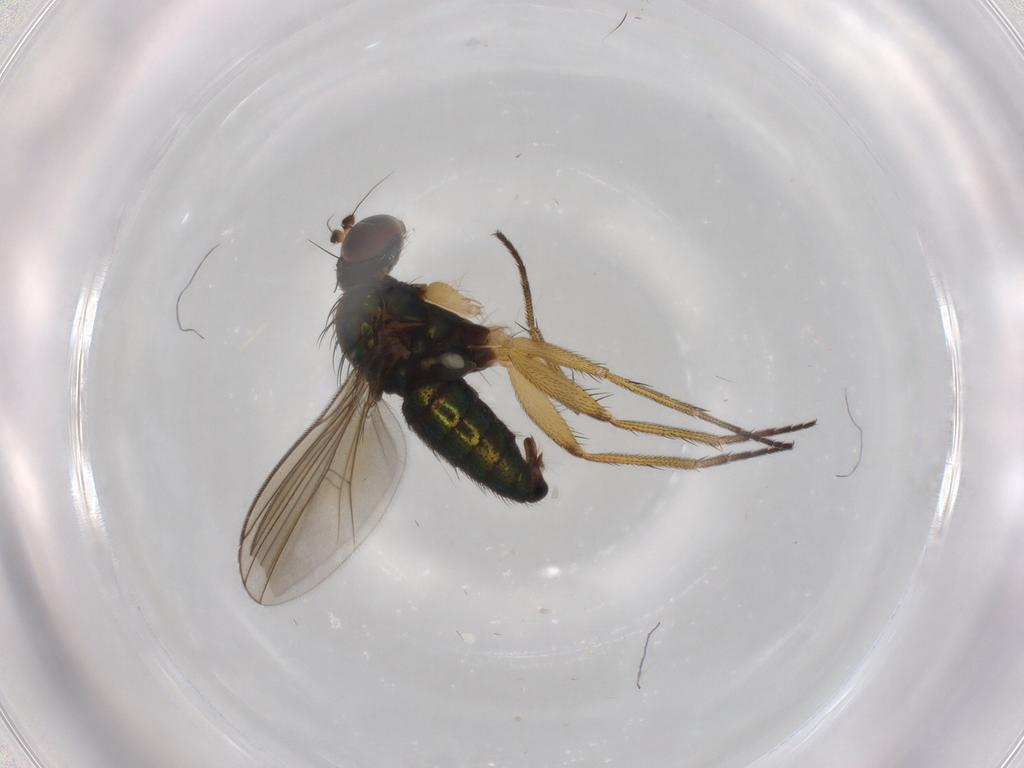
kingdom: Animalia
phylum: Arthropoda
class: Insecta
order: Diptera
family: Dolichopodidae
